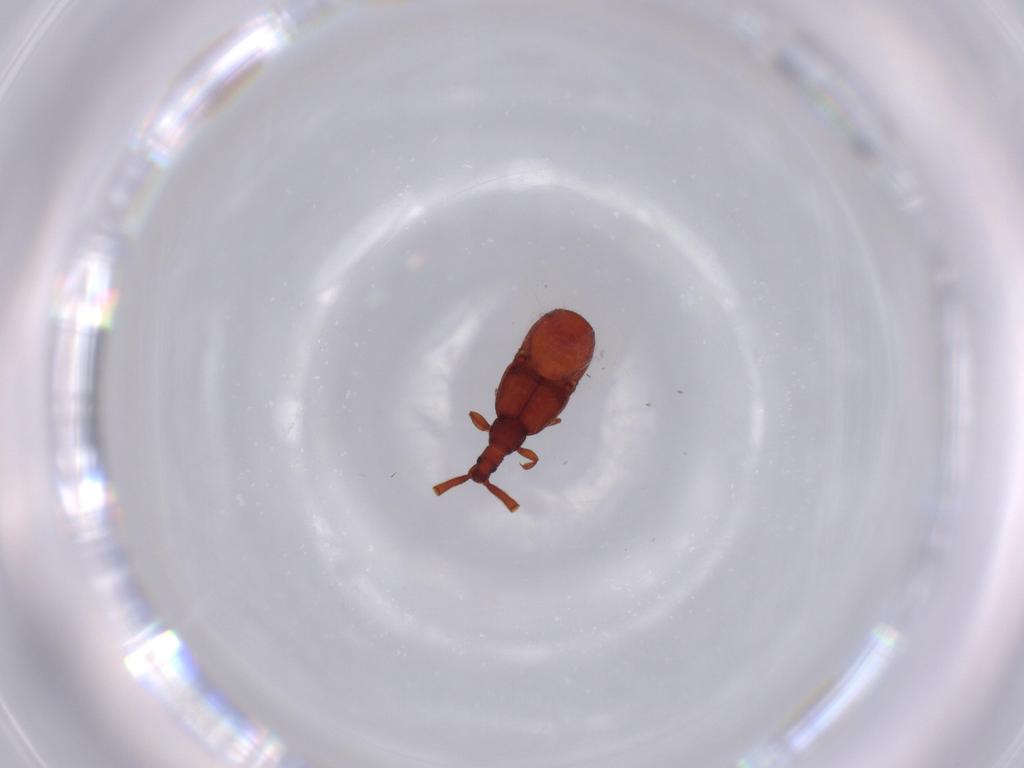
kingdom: Animalia
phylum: Arthropoda
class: Insecta
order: Coleoptera
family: Staphylinidae
